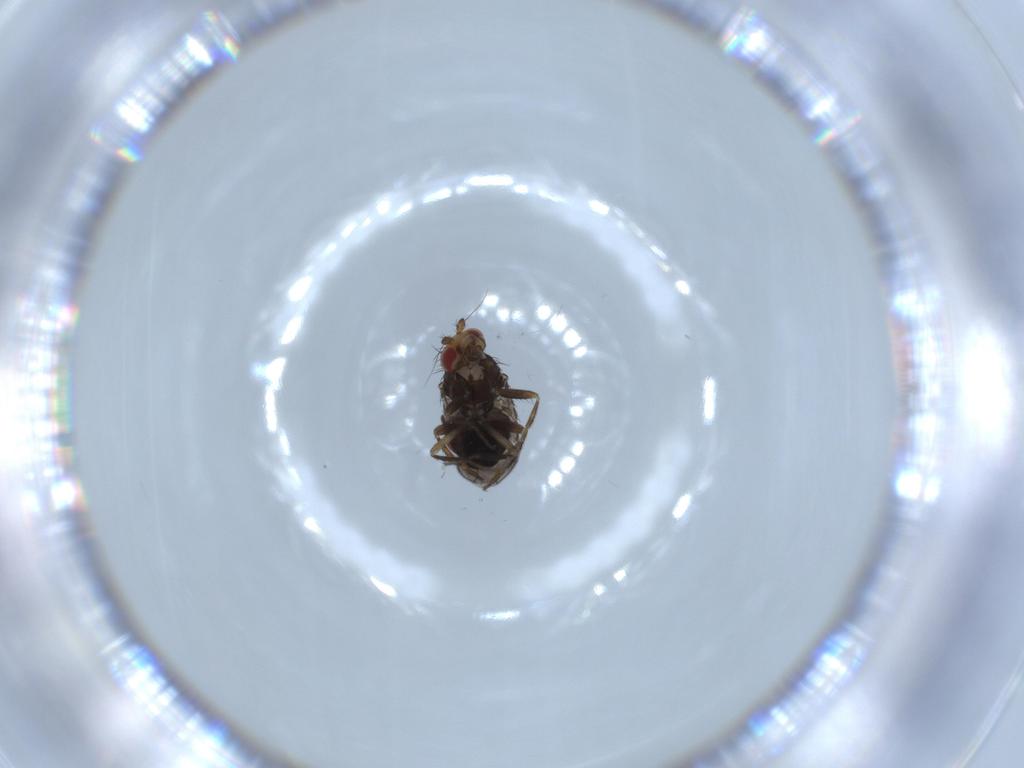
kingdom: Animalia
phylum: Arthropoda
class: Insecta
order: Diptera
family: Sphaeroceridae
